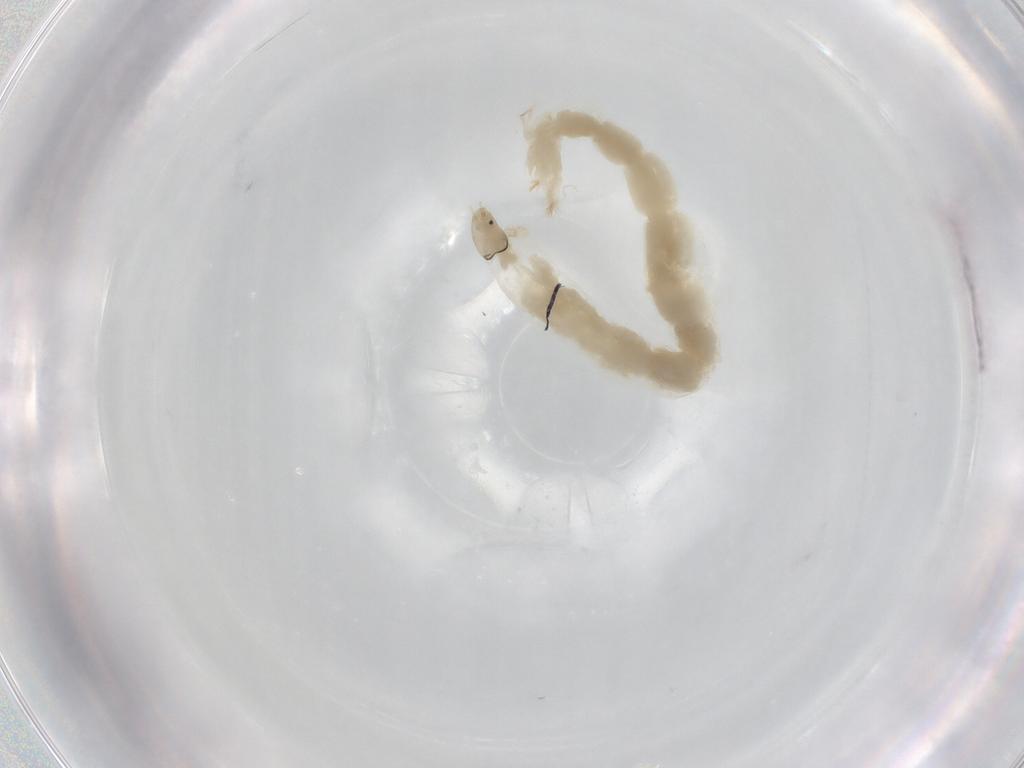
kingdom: Animalia
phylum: Arthropoda
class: Insecta
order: Diptera
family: Chironomidae
